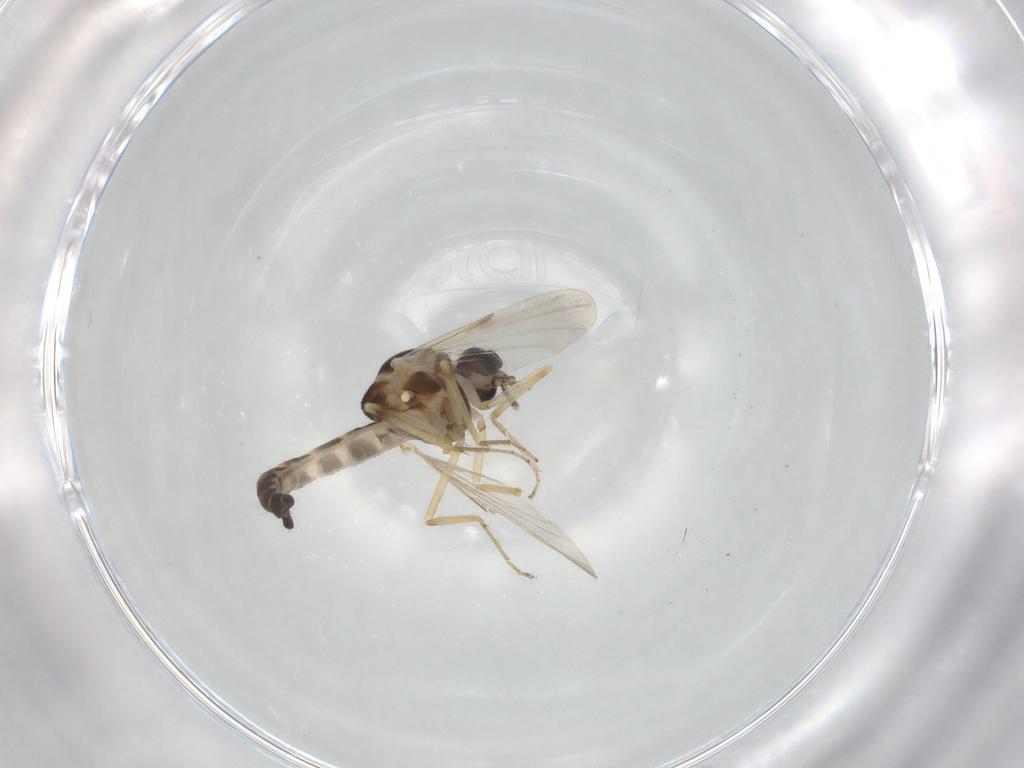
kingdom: Animalia
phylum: Arthropoda
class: Insecta
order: Diptera
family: Ceratopogonidae
